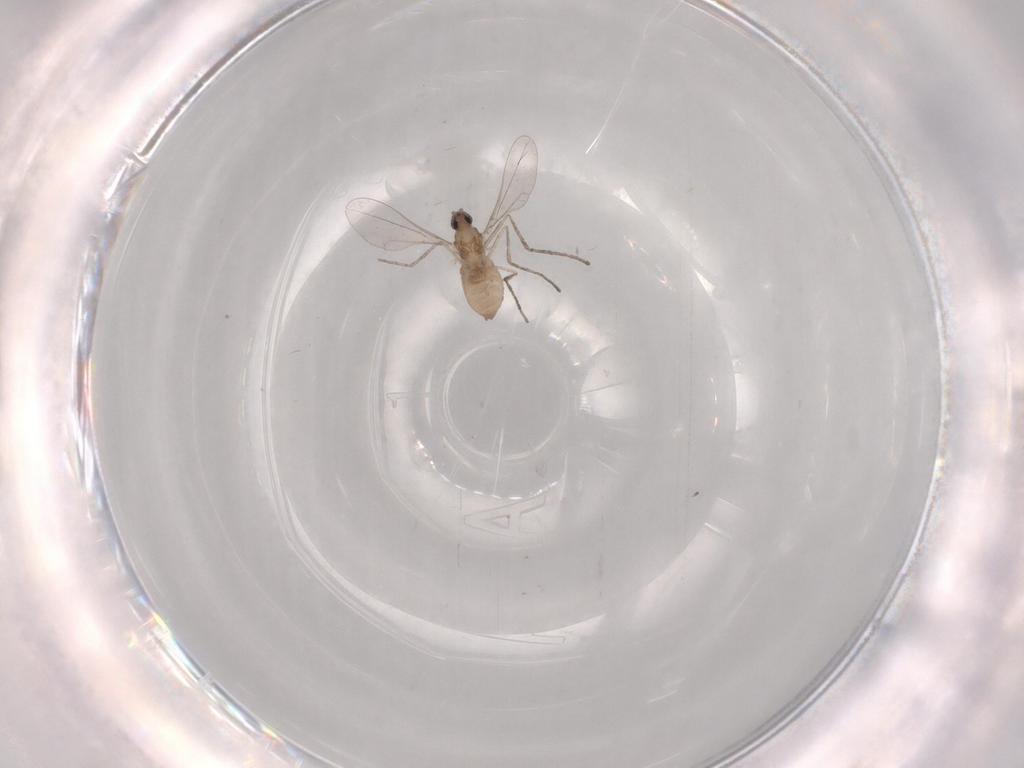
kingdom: Animalia
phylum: Arthropoda
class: Insecta
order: Diptera
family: Cecidomyiidae
